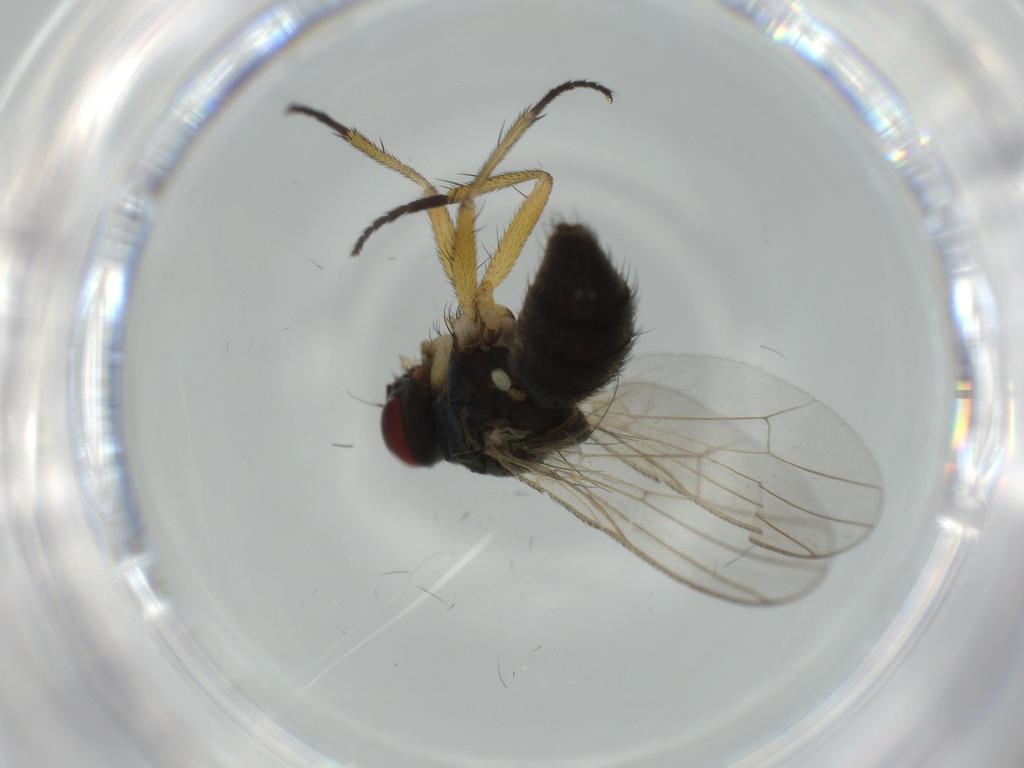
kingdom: Animalia
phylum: Arthropoda
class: Insecta
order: Diptera
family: Muscidae
